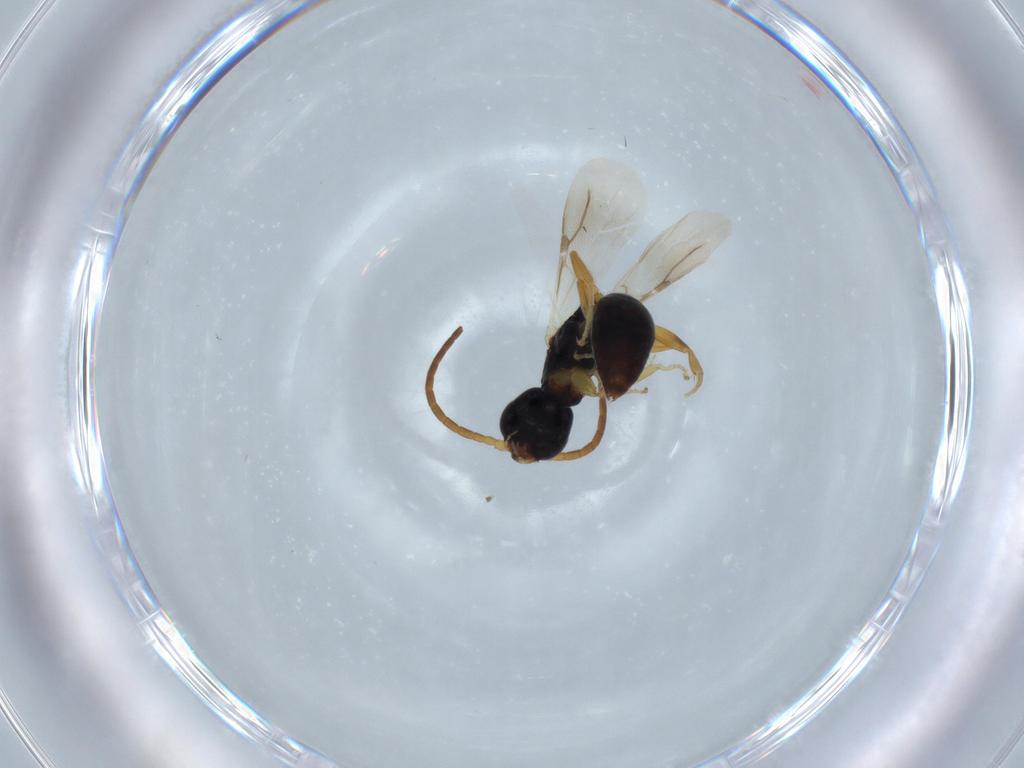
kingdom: Animalia
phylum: Arthropoda
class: Insecta
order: Hymenoptera
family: Bethylidae
